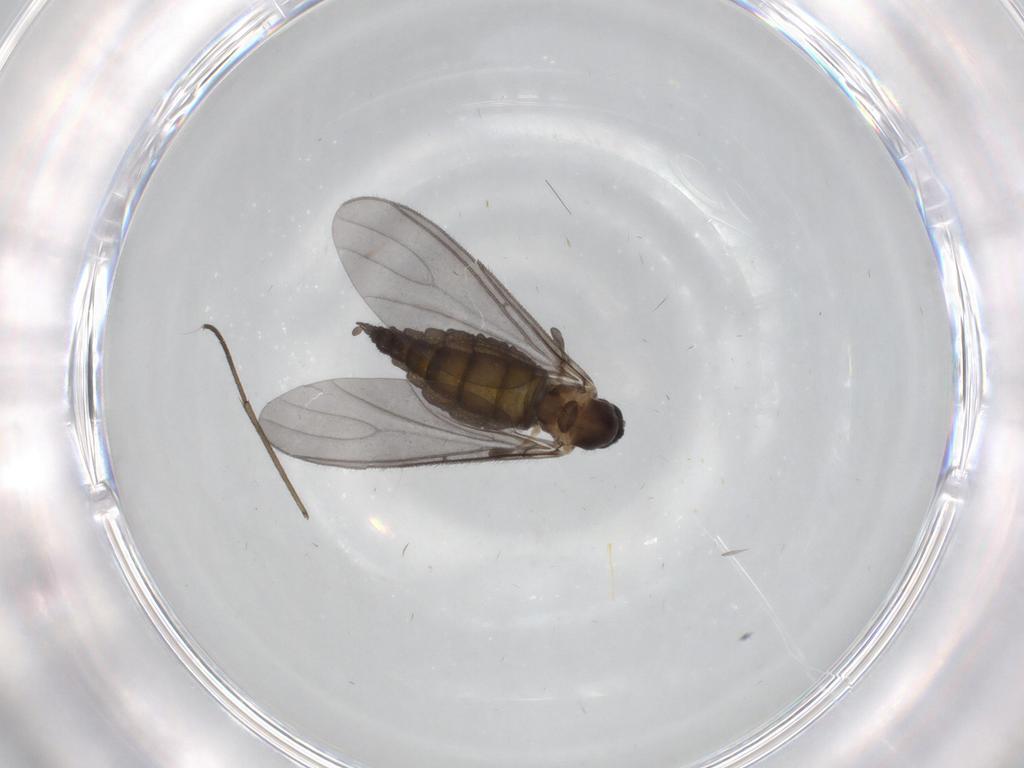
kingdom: Animalia
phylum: Arthropoda
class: Insecta
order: Diptera
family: Sciaridae
